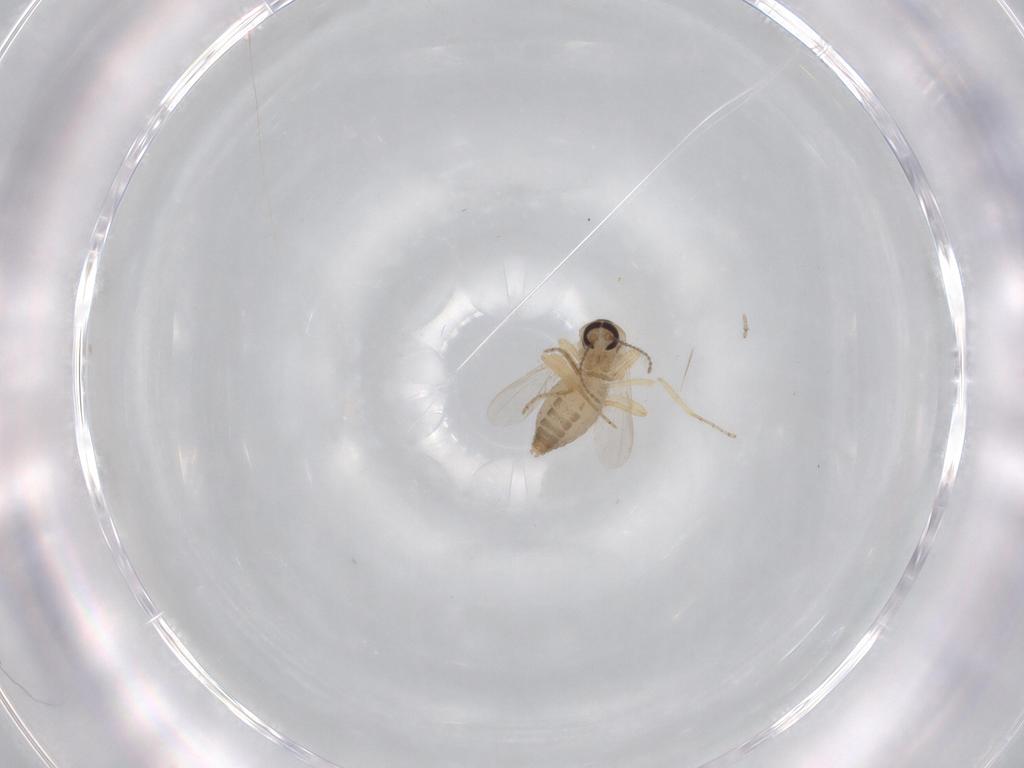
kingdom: Animalia
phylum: Arthropoda
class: Insecta
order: Diptera
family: Ceratopogonidae
